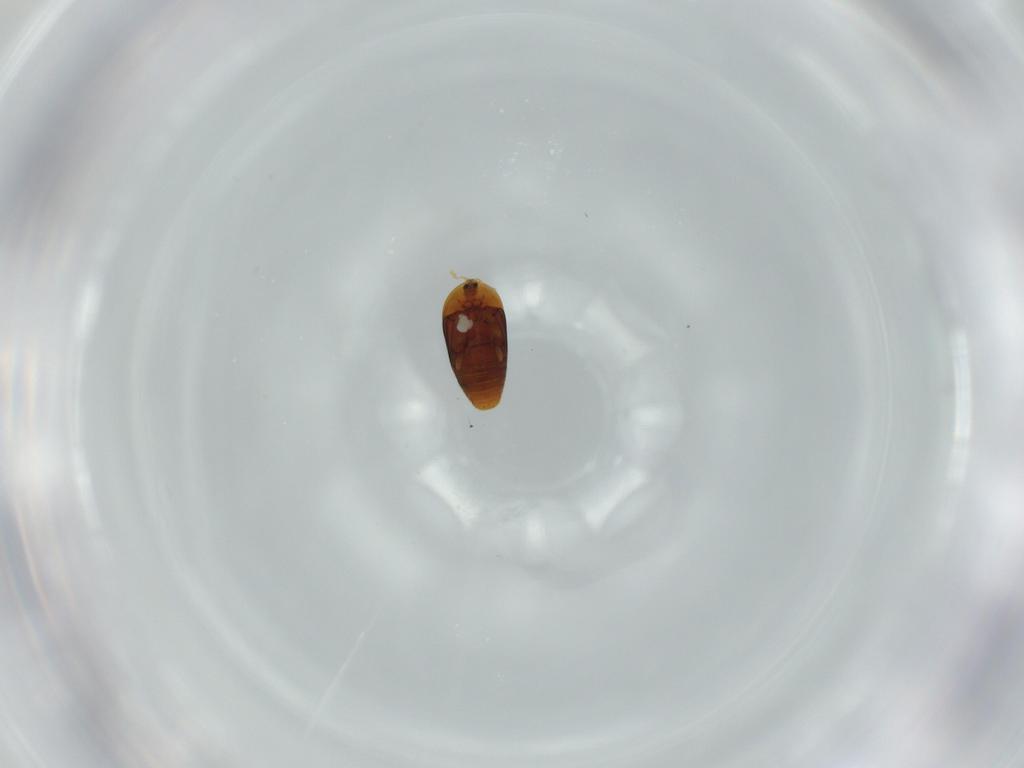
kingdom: Animalia
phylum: Arthropoda
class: Insecta
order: Coleoptera
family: Corylophidae
